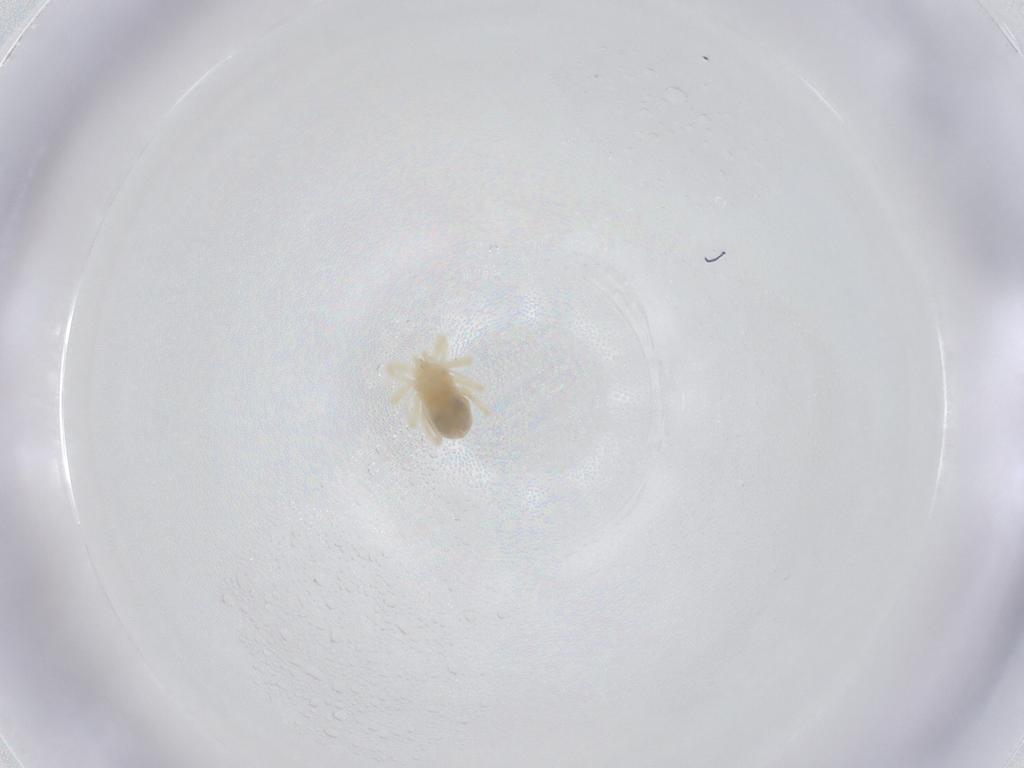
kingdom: Animalia
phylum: Arthropoda
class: Arachnida
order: Trombidiformes
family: Anystidae
